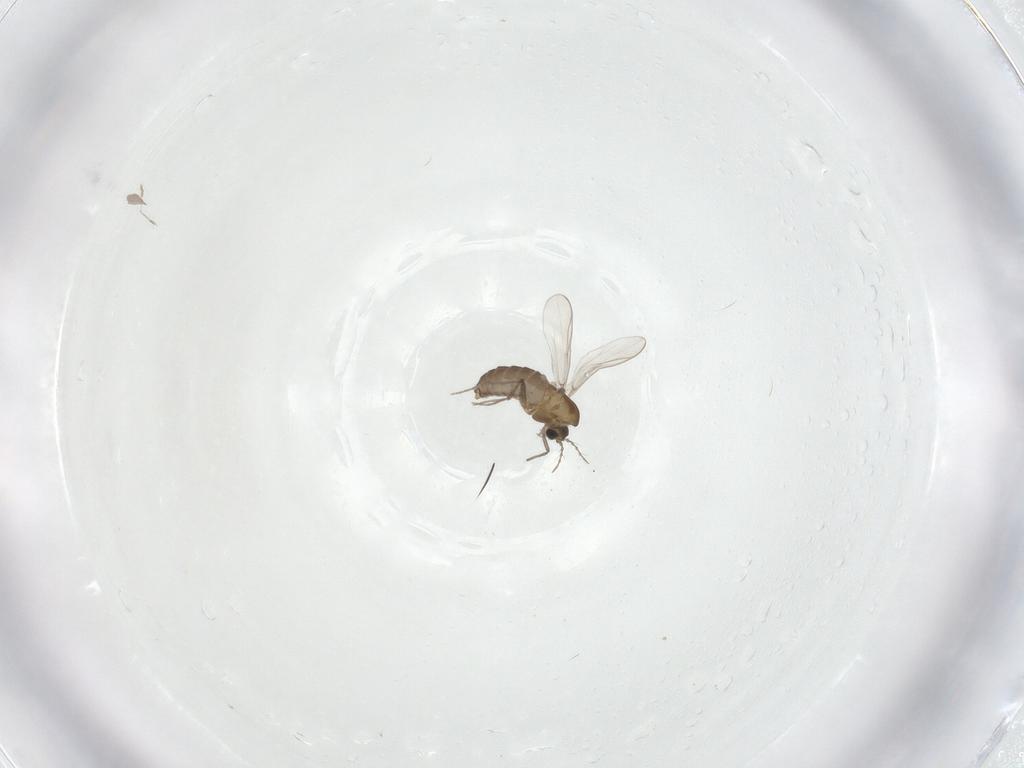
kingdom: Animalia
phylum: Arthropoda
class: Insecta
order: Diptera
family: Chironomidae
